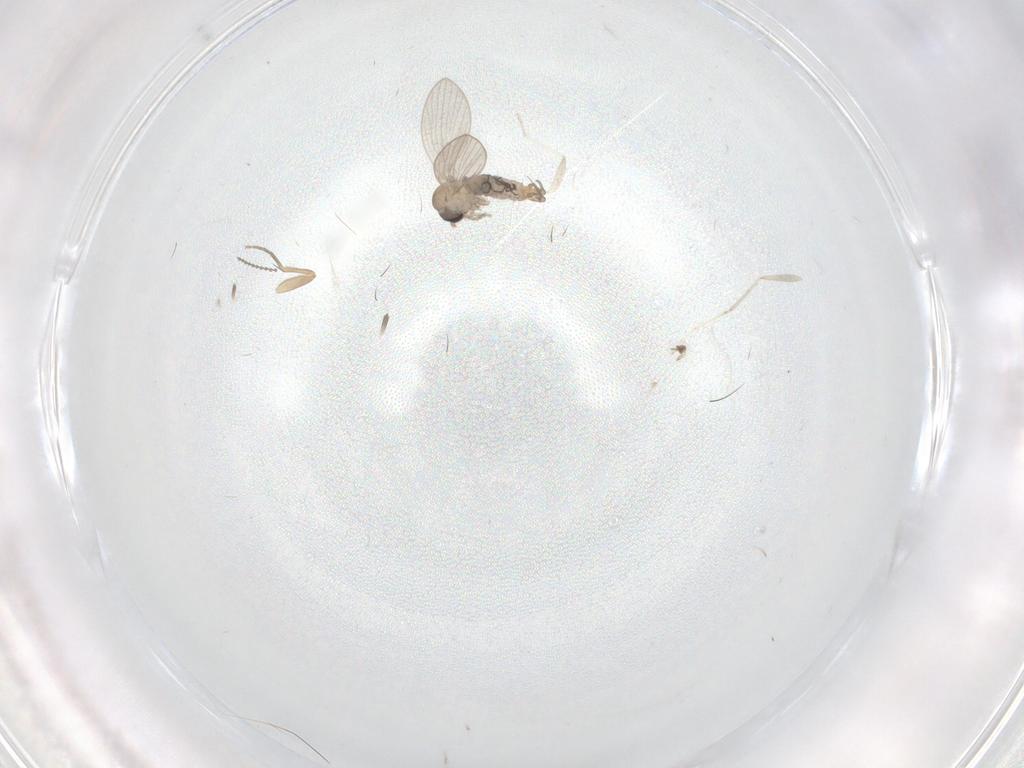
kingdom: Animalia
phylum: Arthropoda
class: Insecta
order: Diptera
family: Psychodidae
